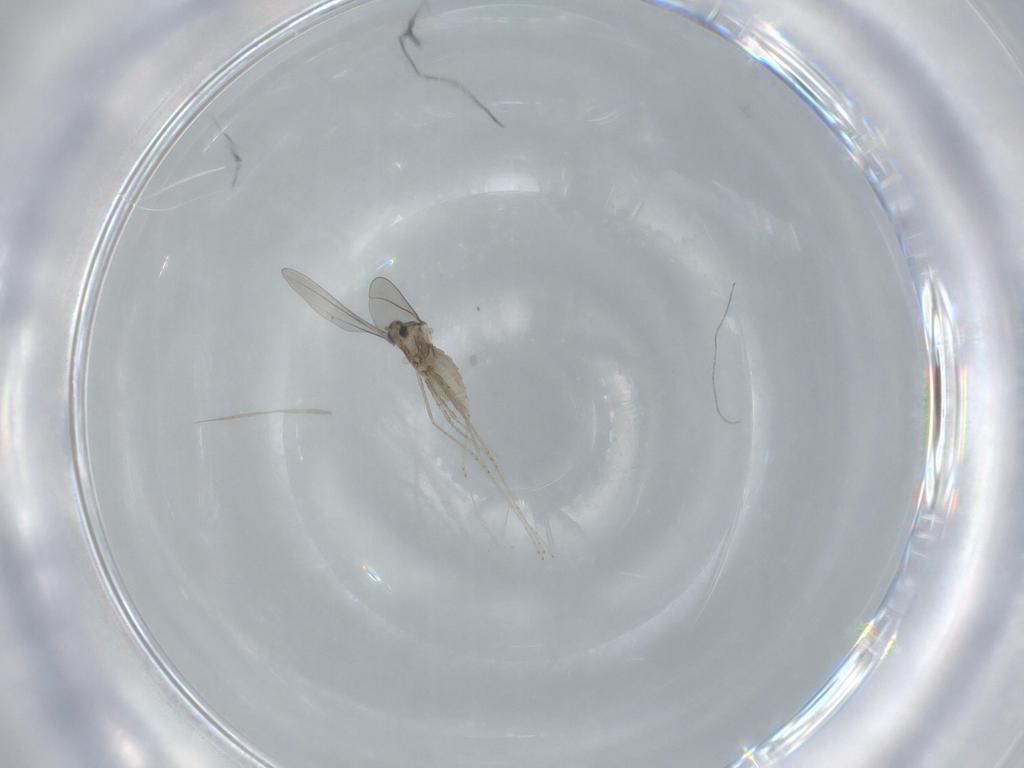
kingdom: Animalia
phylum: Arthropoda
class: Insecta
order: Diptera
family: Cecidomyiidae
